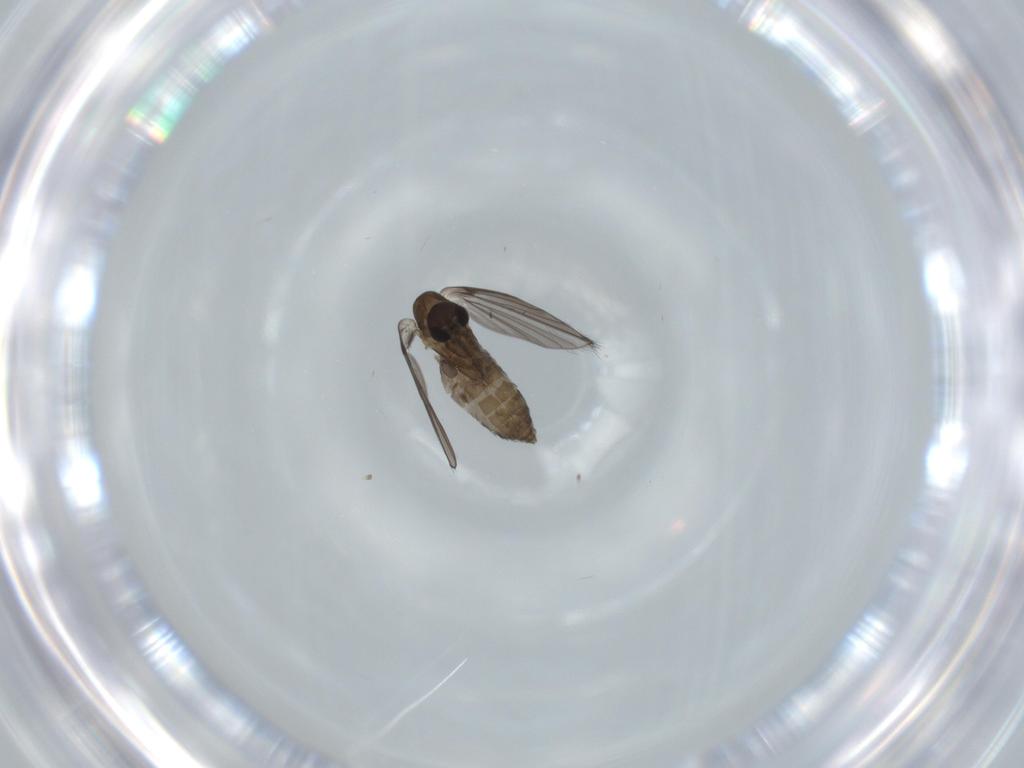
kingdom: Animalia
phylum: Arthropoda
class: Insecta
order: Diptera
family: Psychodidae
